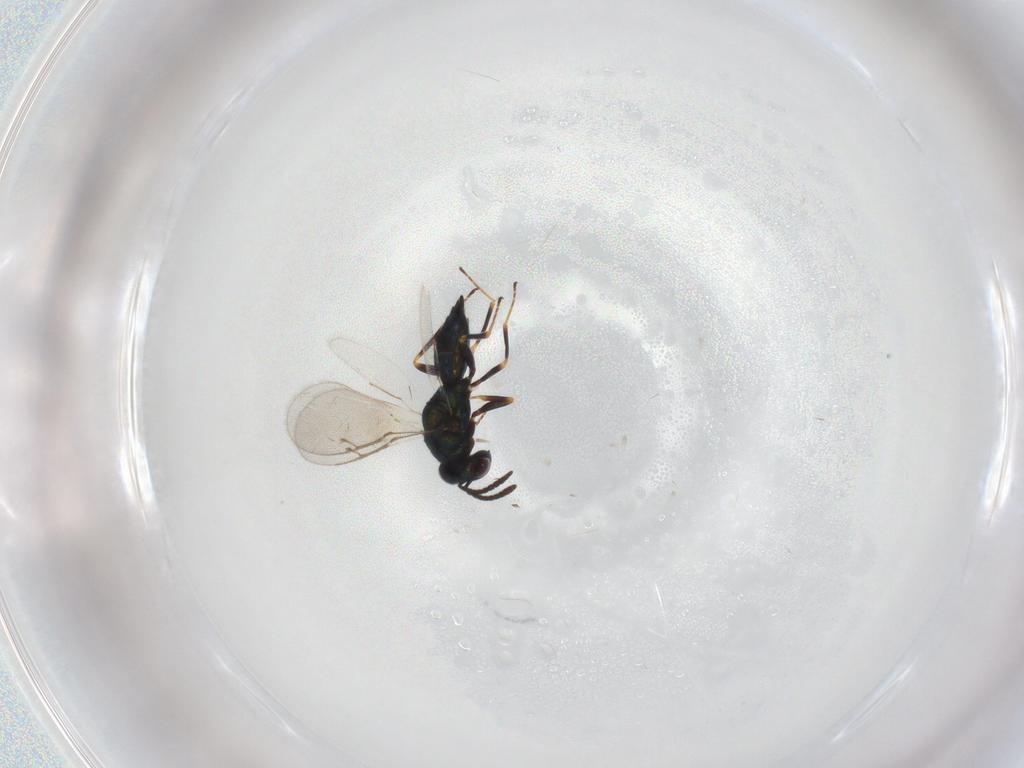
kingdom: Animalia
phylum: Arthropoda
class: Insecta
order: Hymenoptera
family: Pteromalidae
